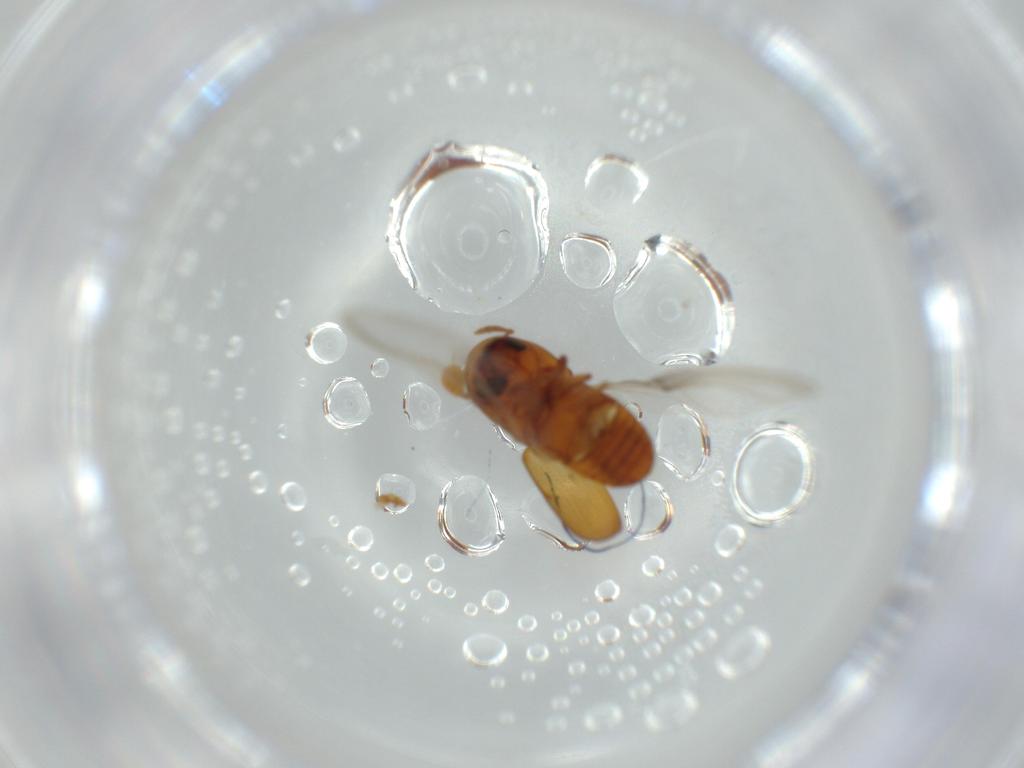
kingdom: Animalia
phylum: Arthropoda
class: Insecta
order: Coleoptera
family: Curculionidae
